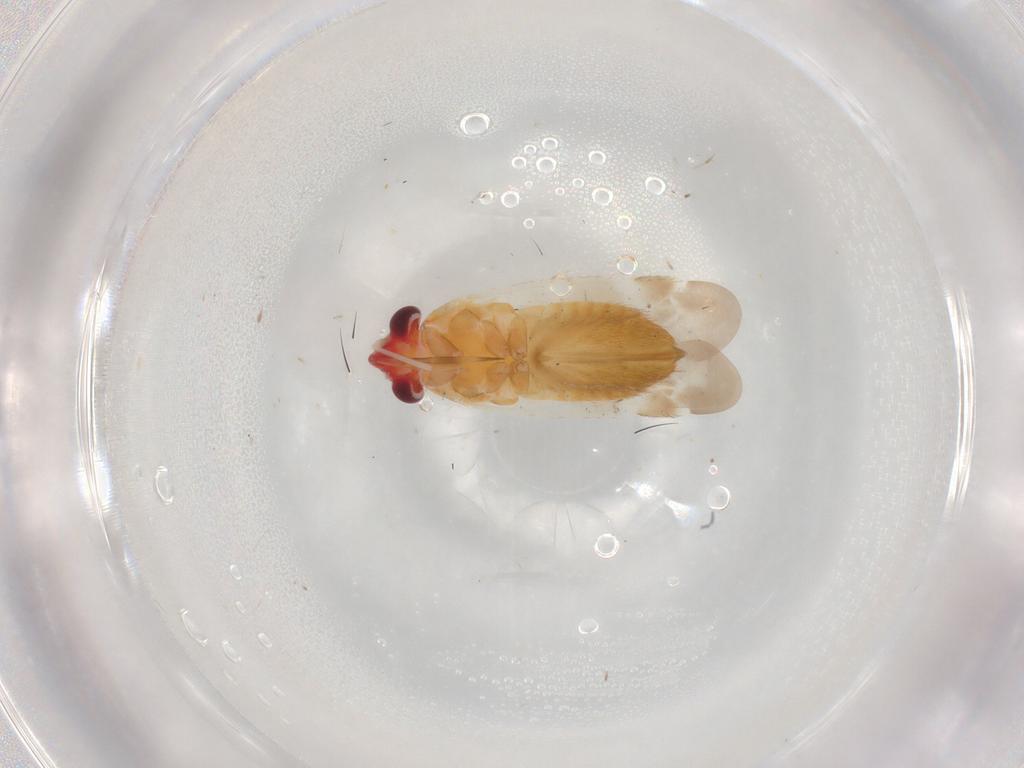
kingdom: Animalia
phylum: Arthropoda
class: Insecta
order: Hemiptera
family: Miridae
